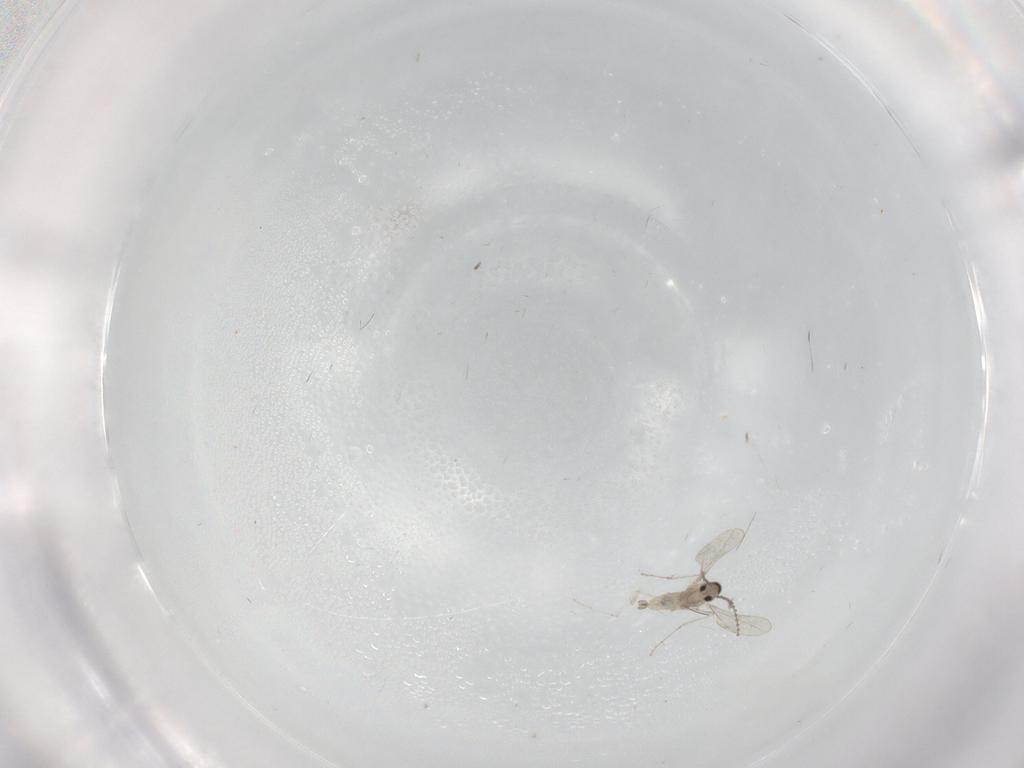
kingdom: Animalia
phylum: Arthropoda
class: Insecta
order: Diptera
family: Cecidomyiidae
